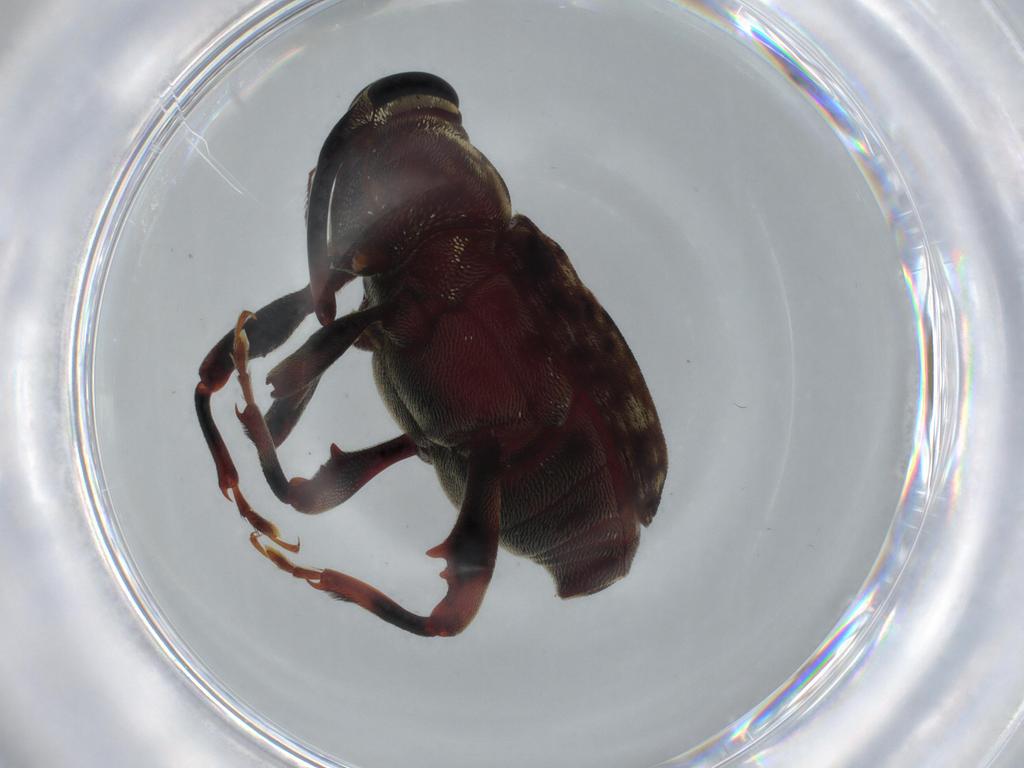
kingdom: Animalia
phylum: Arthropoda
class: Insecta
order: Coleoptera
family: Curculionidae
